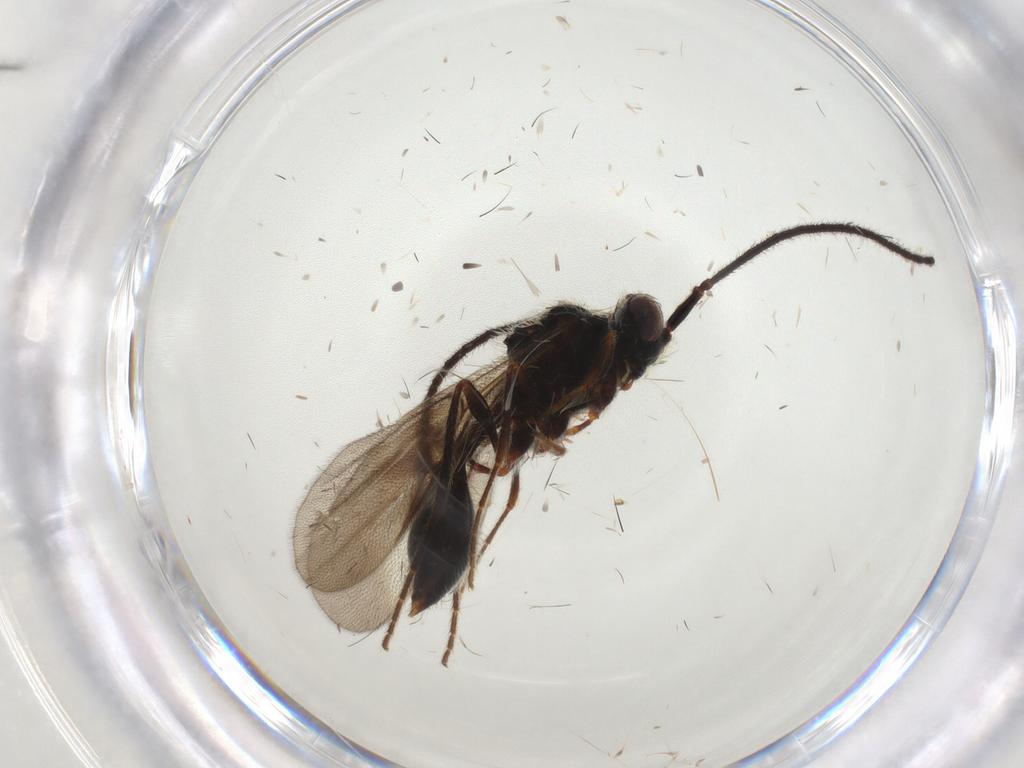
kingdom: Animalia
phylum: Arthropoda
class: Insecta
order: Hymenoptera
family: Diapriidae
